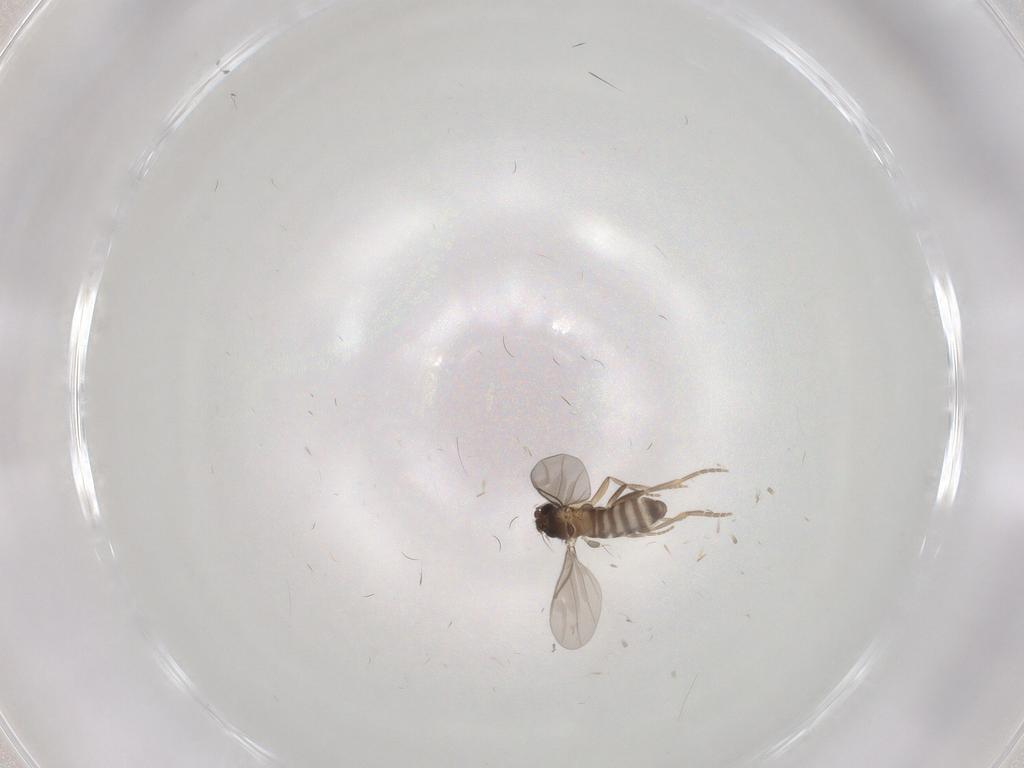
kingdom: Animalia
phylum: Arthropoda
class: Insecta
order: Diptera
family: Cecidomyiidae
